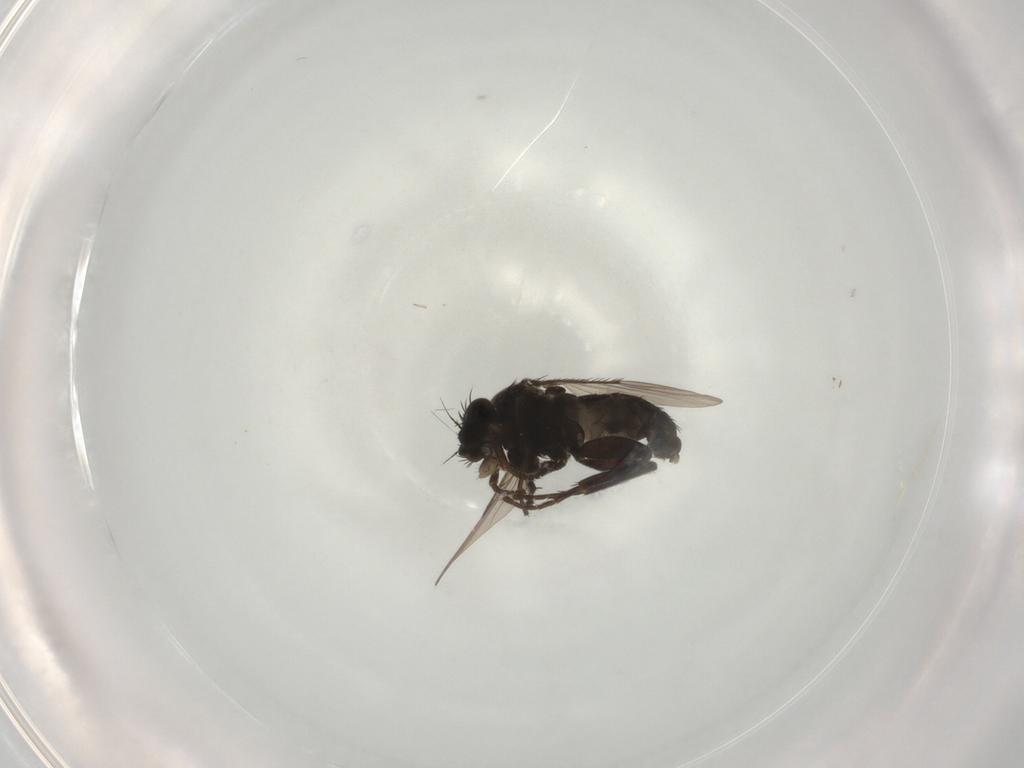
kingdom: Animalia
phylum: Arthropoda
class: Insecta
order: Diptera
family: Phoridae
